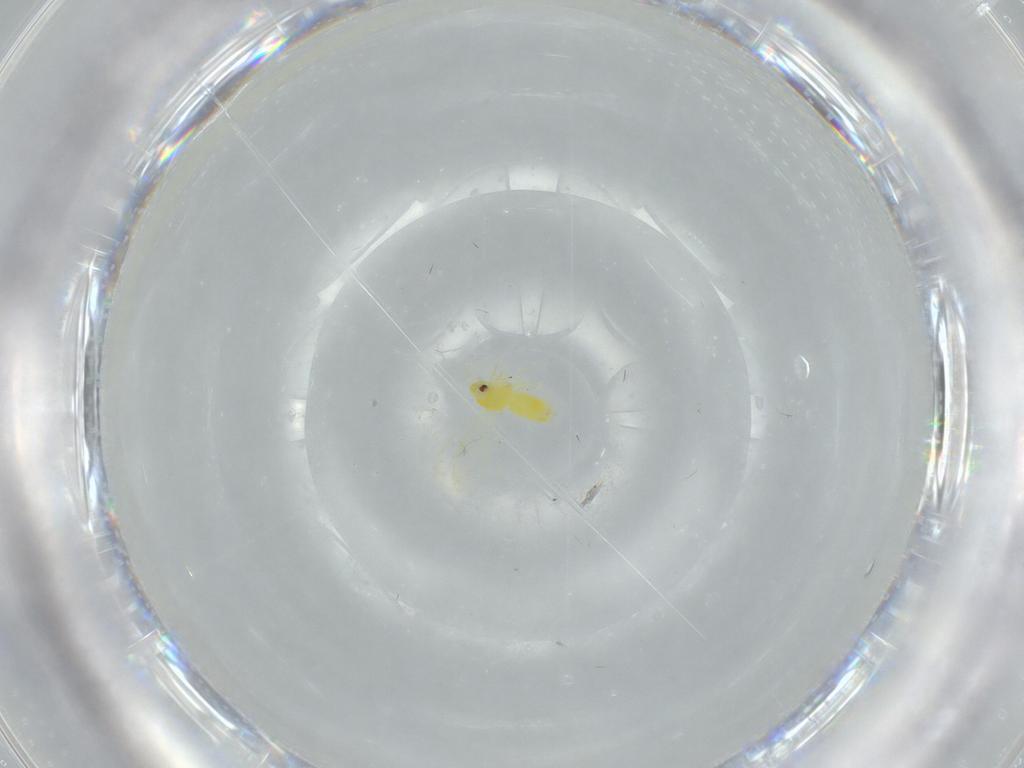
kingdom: Animalia
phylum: Arthropoda
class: Insecta
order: Hemiptera
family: Aleyrodidae
